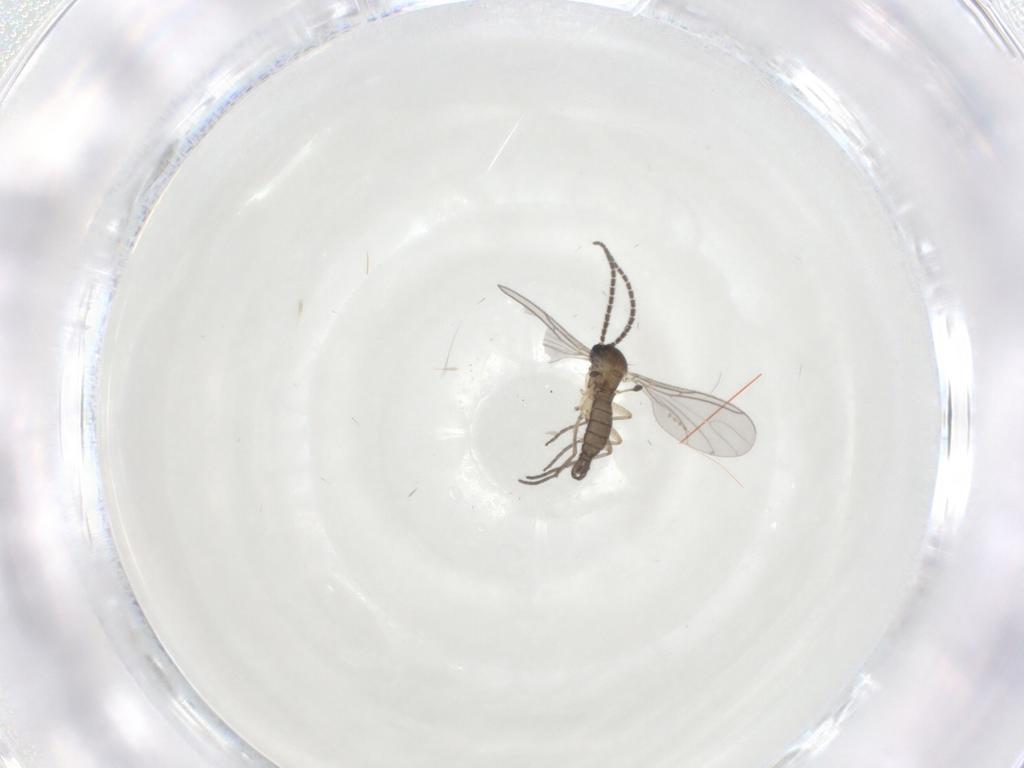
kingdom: Animalia
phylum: Arthropoda
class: Insecta
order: Diptera
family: Sciaridae
